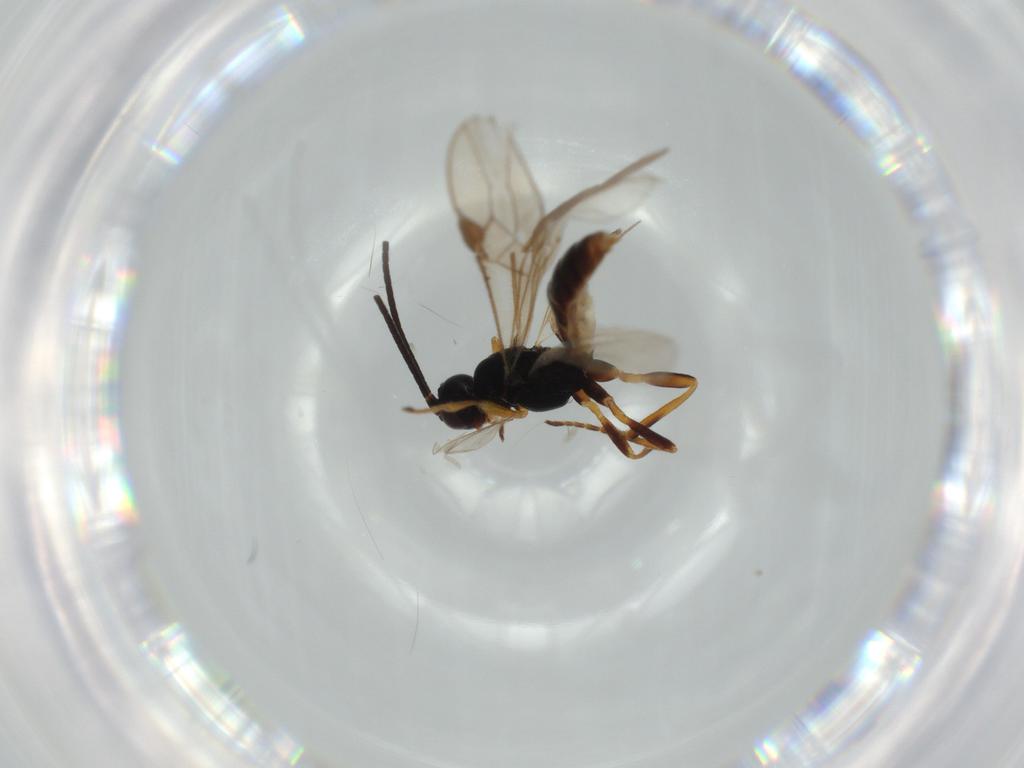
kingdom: Animalia
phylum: Arthropoda
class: Insecta
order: Hymenoptera
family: Braconidae
